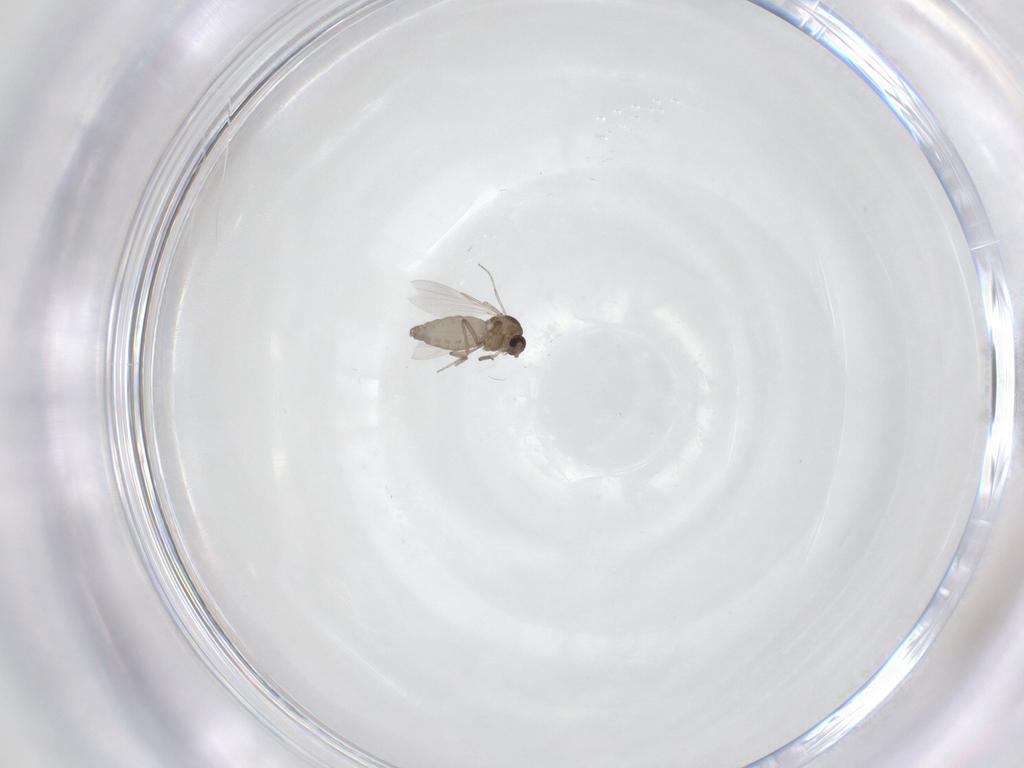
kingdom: Animalia
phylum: Arthropoda
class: Insecta
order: Diptera
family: Ceratopogonidae
